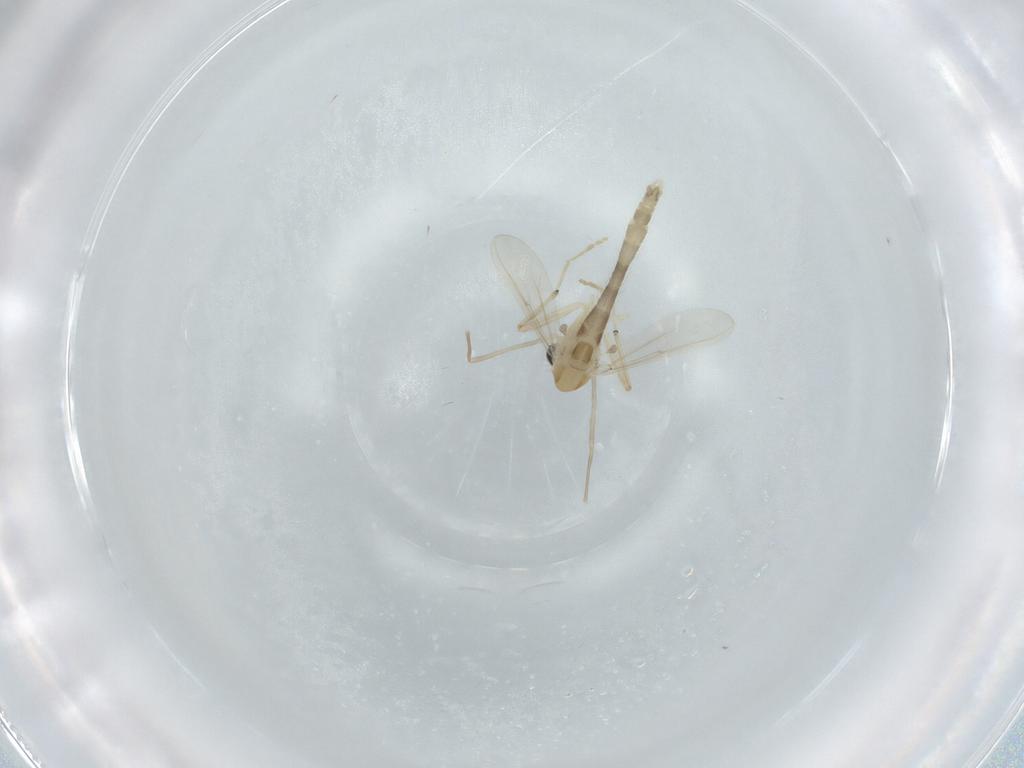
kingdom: Animalia
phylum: Arthropoda
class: Insecta
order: Diptera
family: Chironomidae
